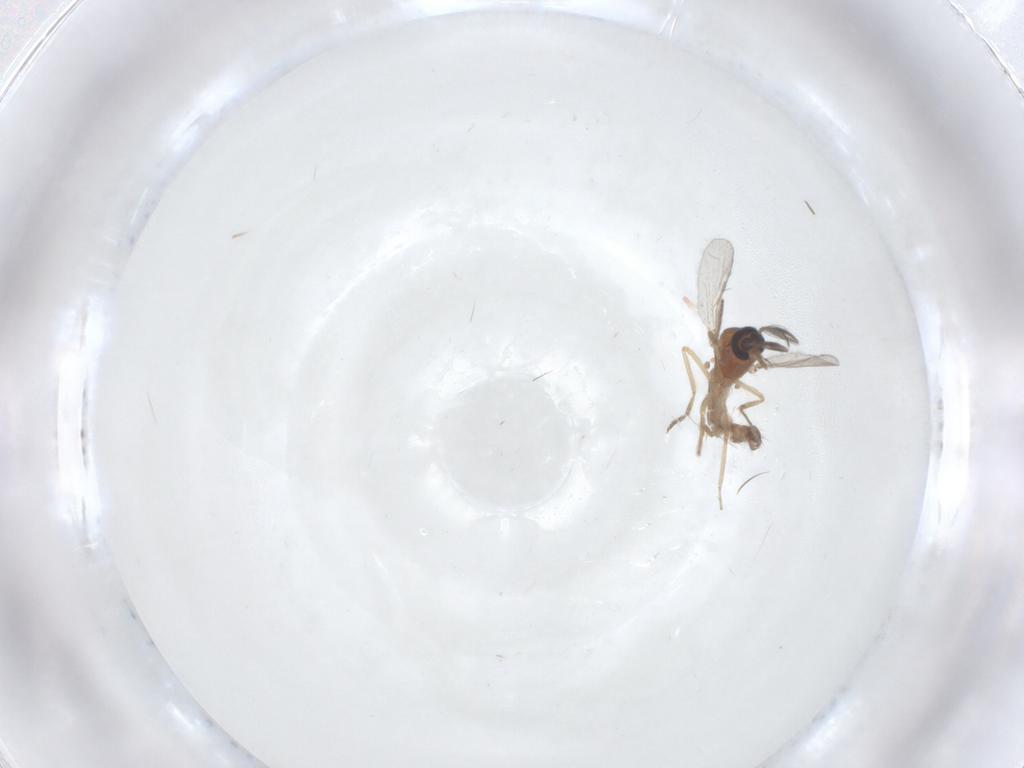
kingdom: Animalia
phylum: Arthropoda
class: Insecta
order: Diptera
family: Ceratopogonidae
